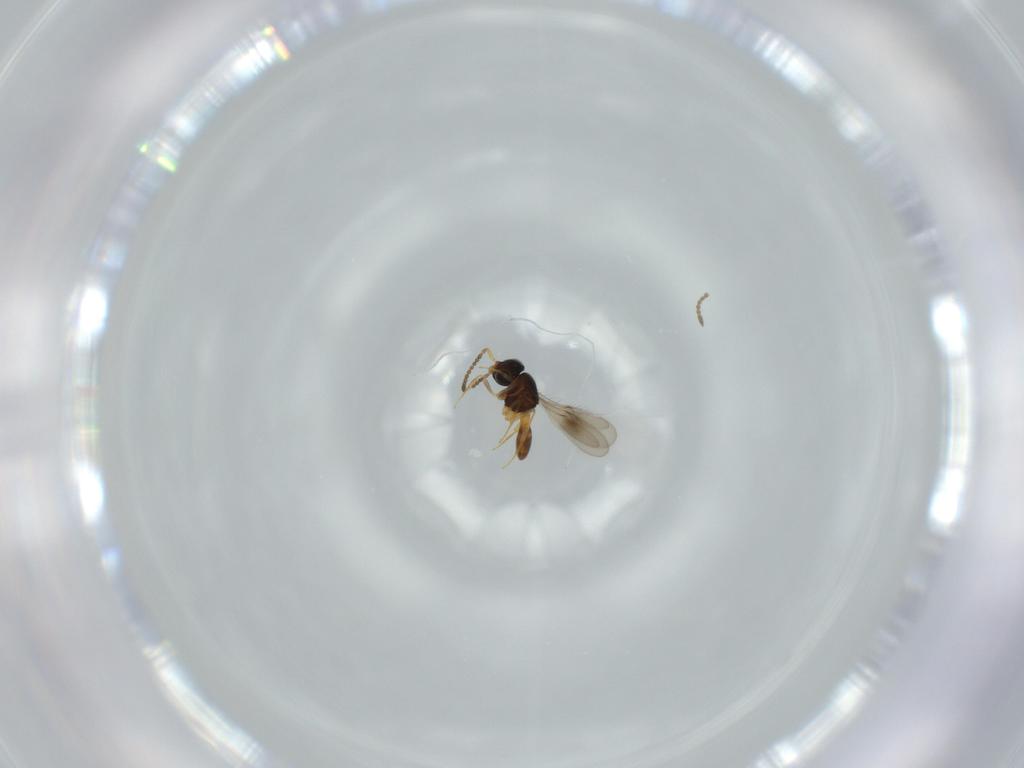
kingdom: Animalia
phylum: Arthropoda
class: Insecta
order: Hymenoptera
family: Scelionidae
